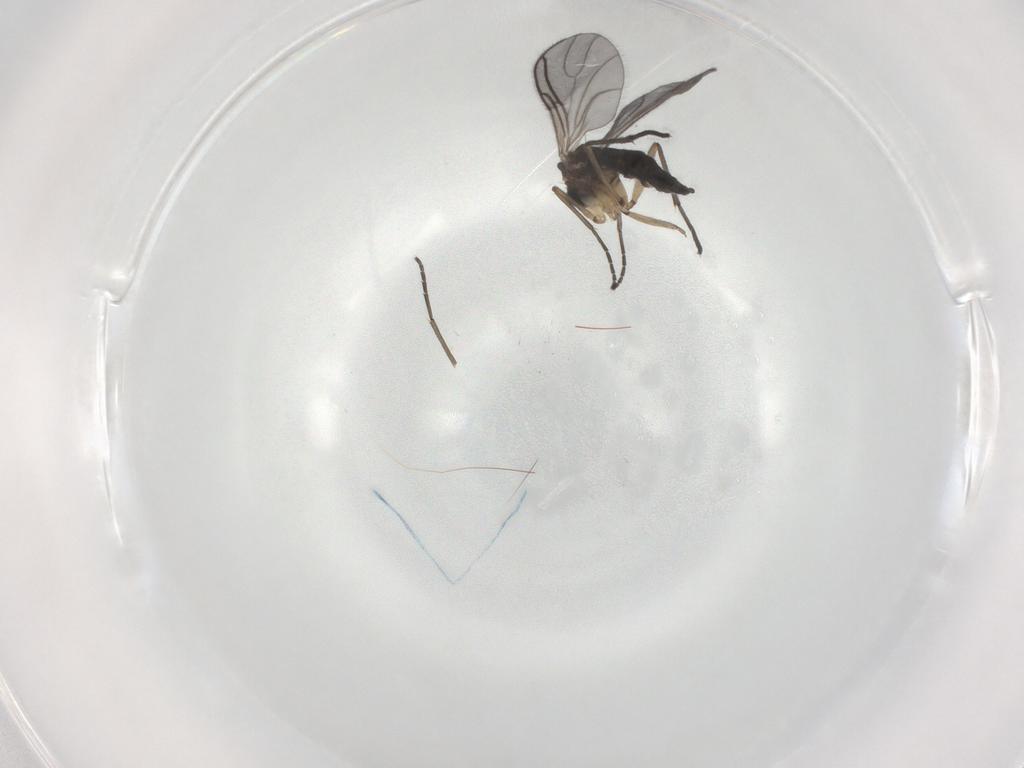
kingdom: Animalia
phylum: Arthropoda
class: Insecta
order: Diptera
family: Sciaridae
